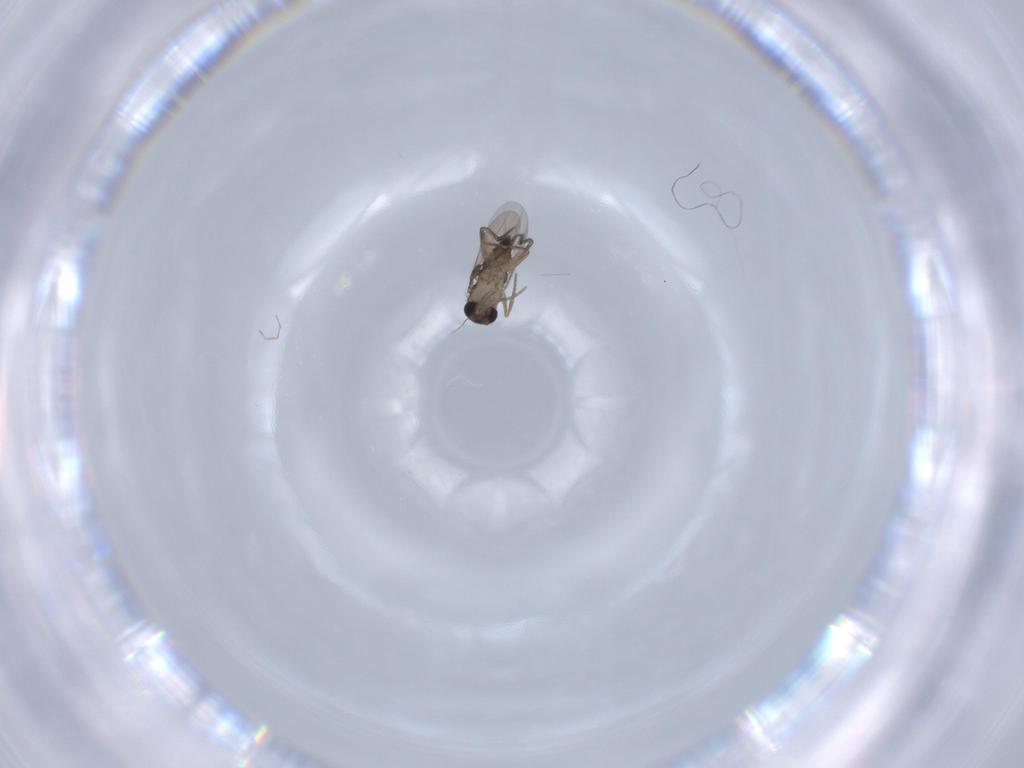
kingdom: Animalia
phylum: Arthropoda
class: Insecta
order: Diptera
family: Phoridae
